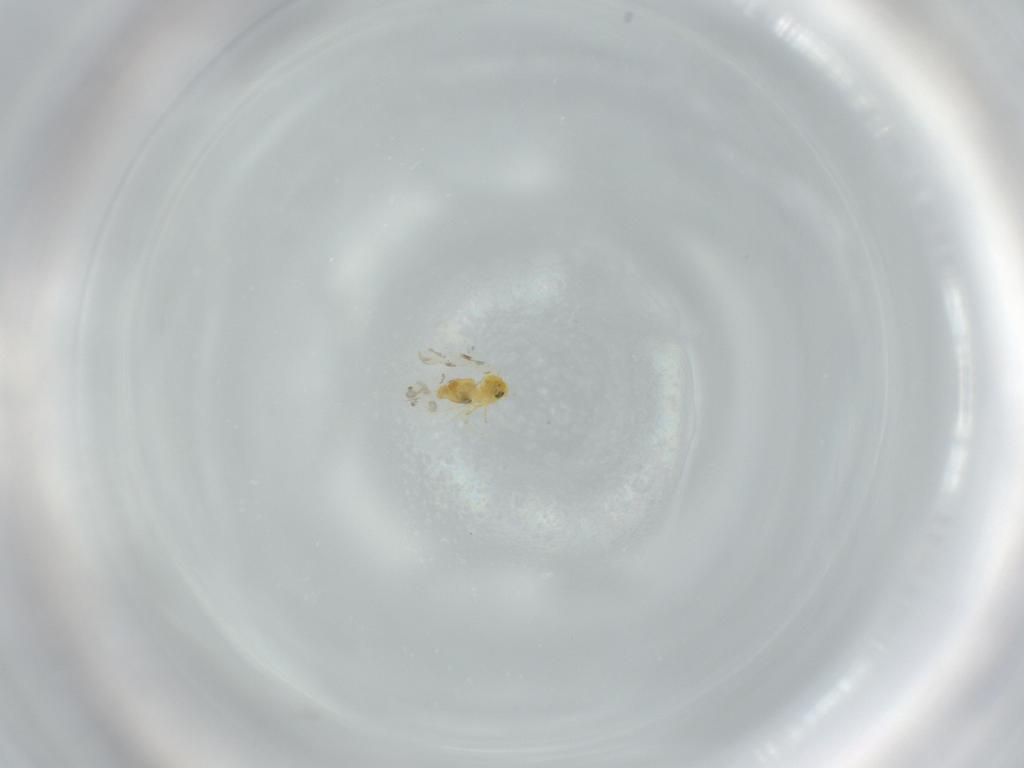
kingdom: Animalia
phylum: Arthropoda
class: Insecta
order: Hemiptera
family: Aleyrodidae
